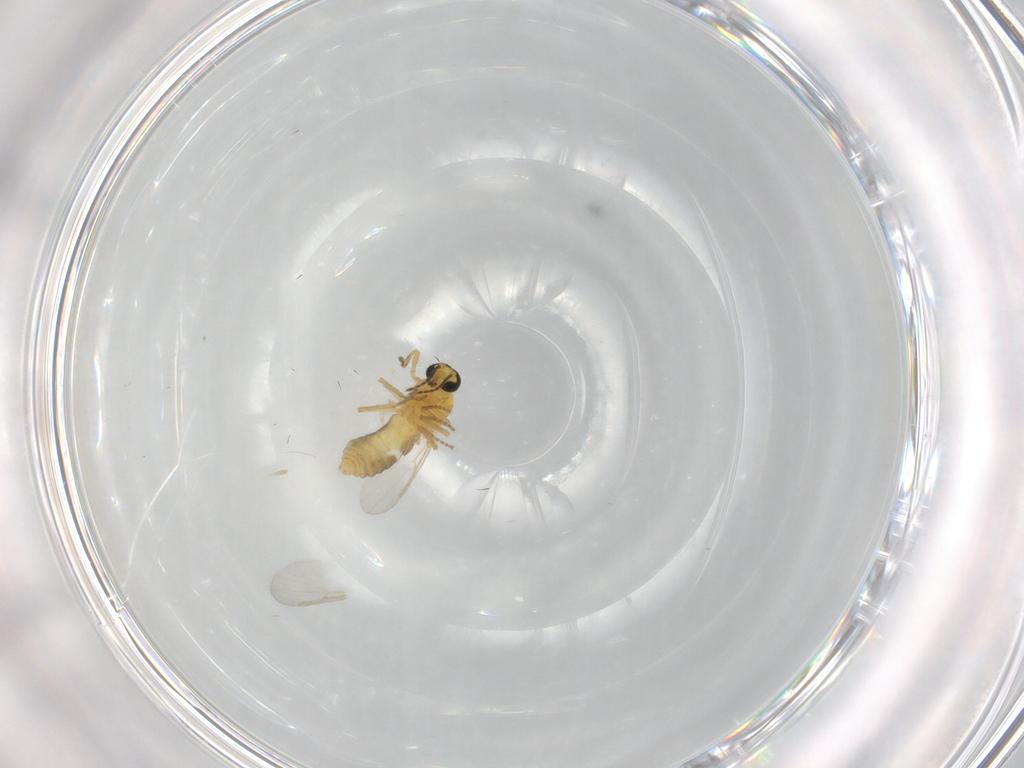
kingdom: Animalia
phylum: Arthropoda
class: Insecta
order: Diptera
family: Ceratopogonidae
